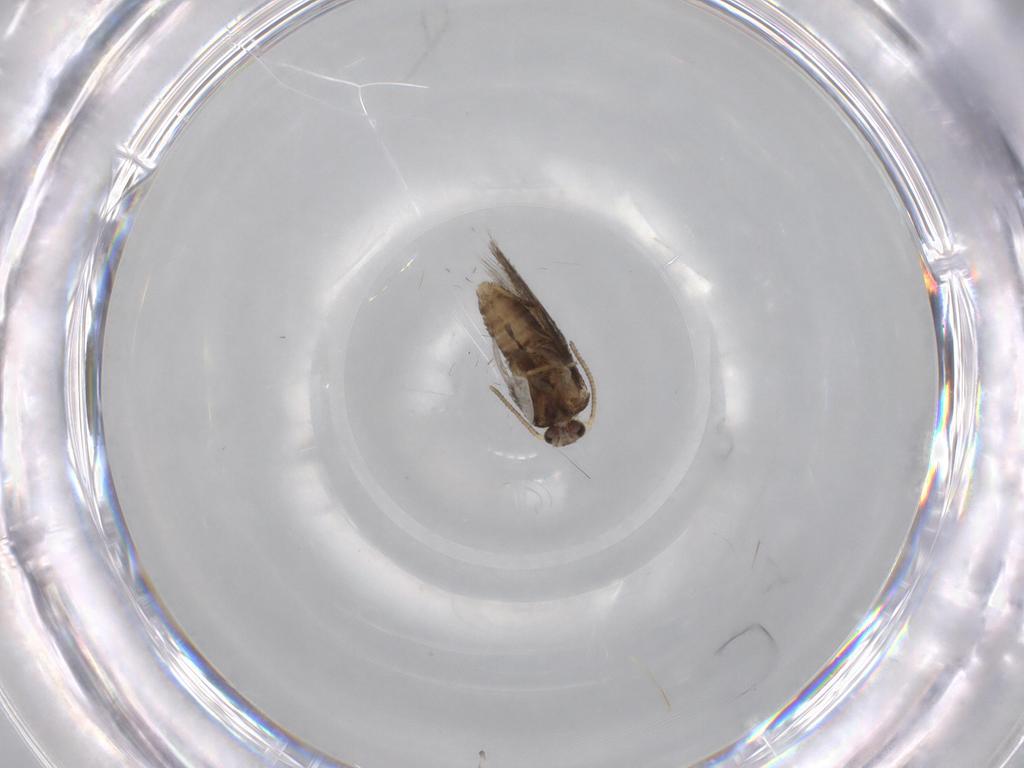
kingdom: Animalia
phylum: Arthropoda
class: Insecta
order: Lepidoptera
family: Nepticulidae
